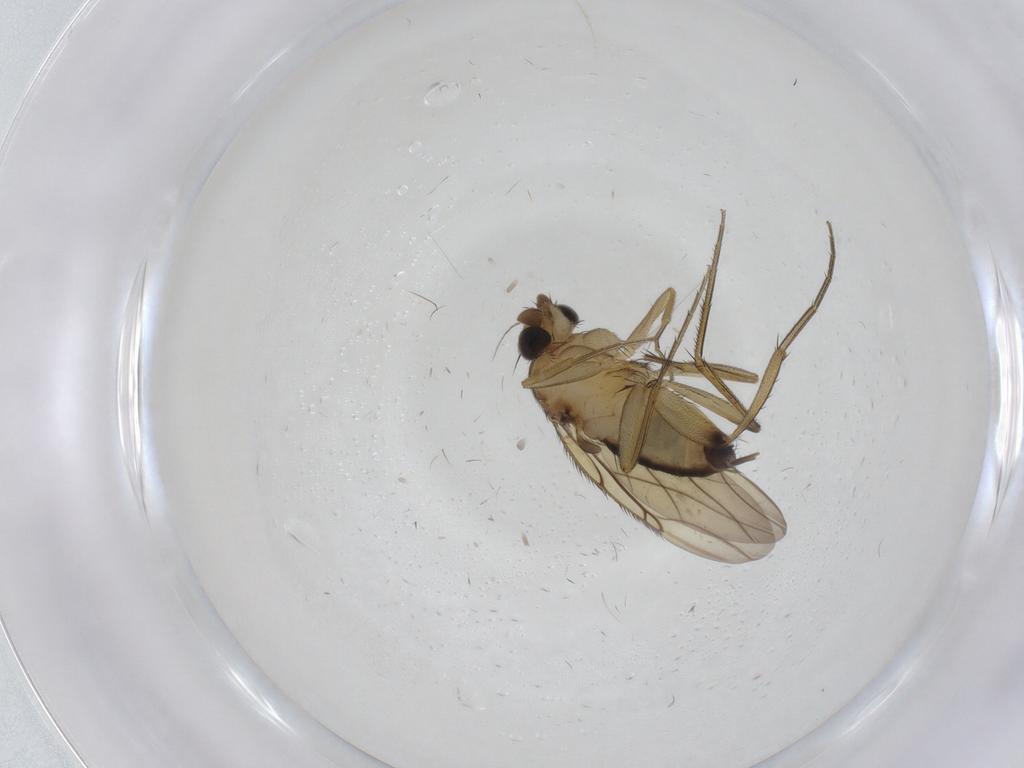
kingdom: Animalia
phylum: Arthropoda
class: Insecta
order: Diptera
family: Phoridae
